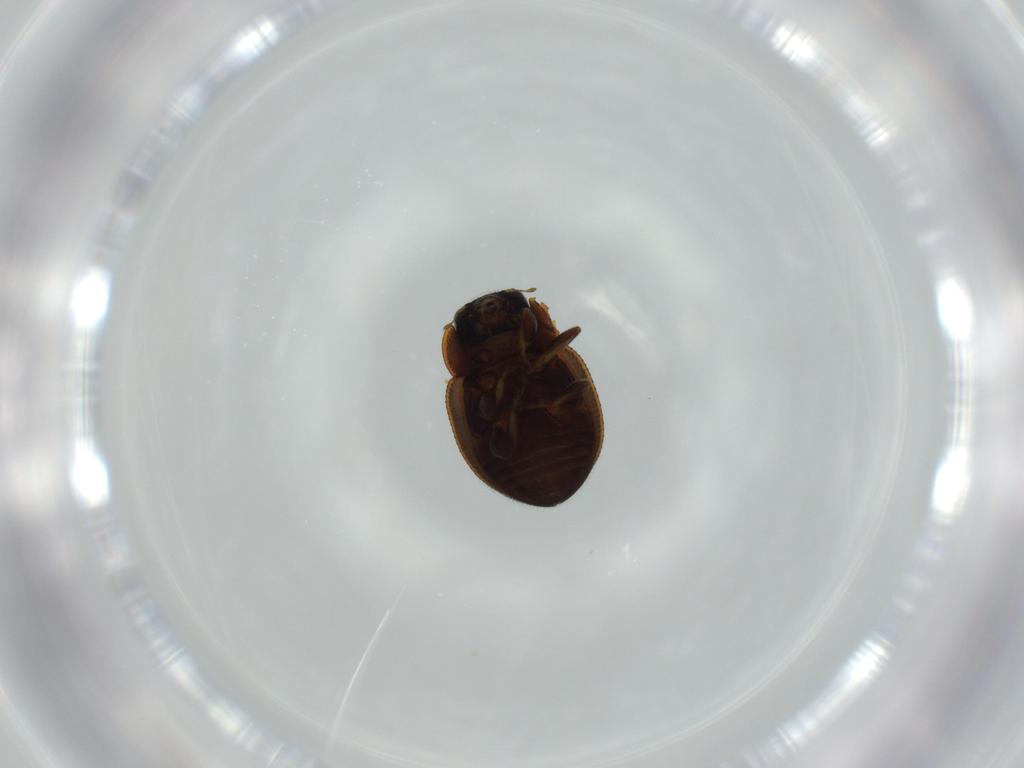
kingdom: Animalia
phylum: Arthropoda
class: Insecta
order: Coleoptera
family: Coccinellidae
